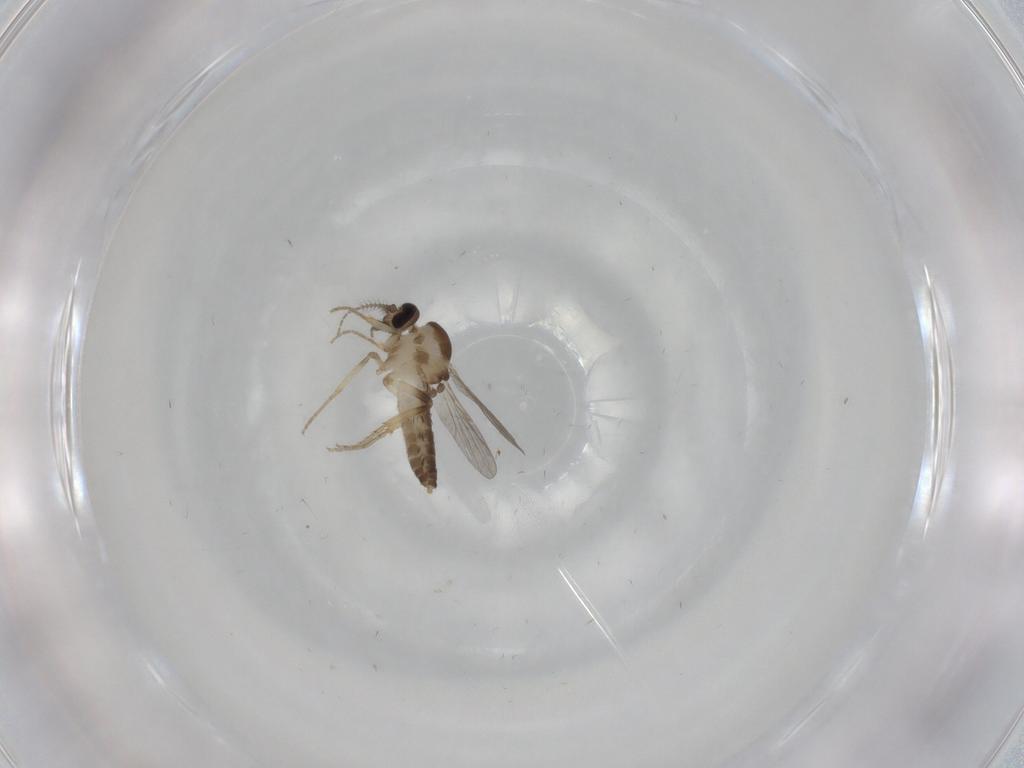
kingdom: Animalia
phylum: Arthropoda
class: Insecta
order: Diptera
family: Ceratopogonidae
